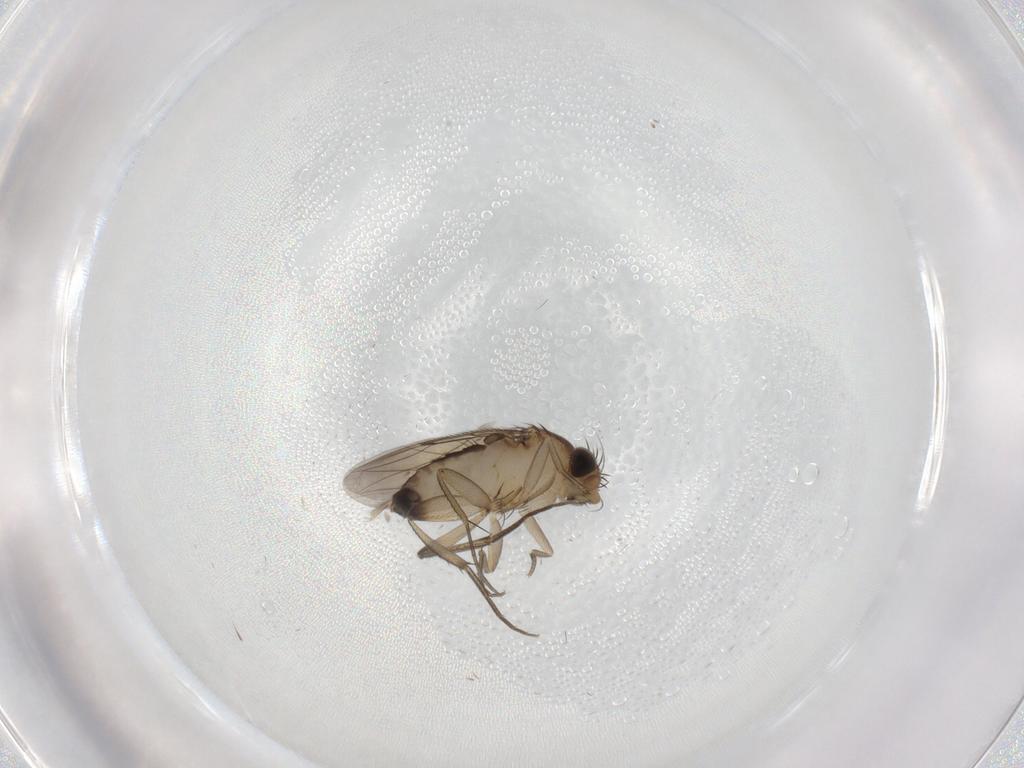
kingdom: Animalia
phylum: Arthropoda
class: Insecta
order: Diptera
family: Phoridae
